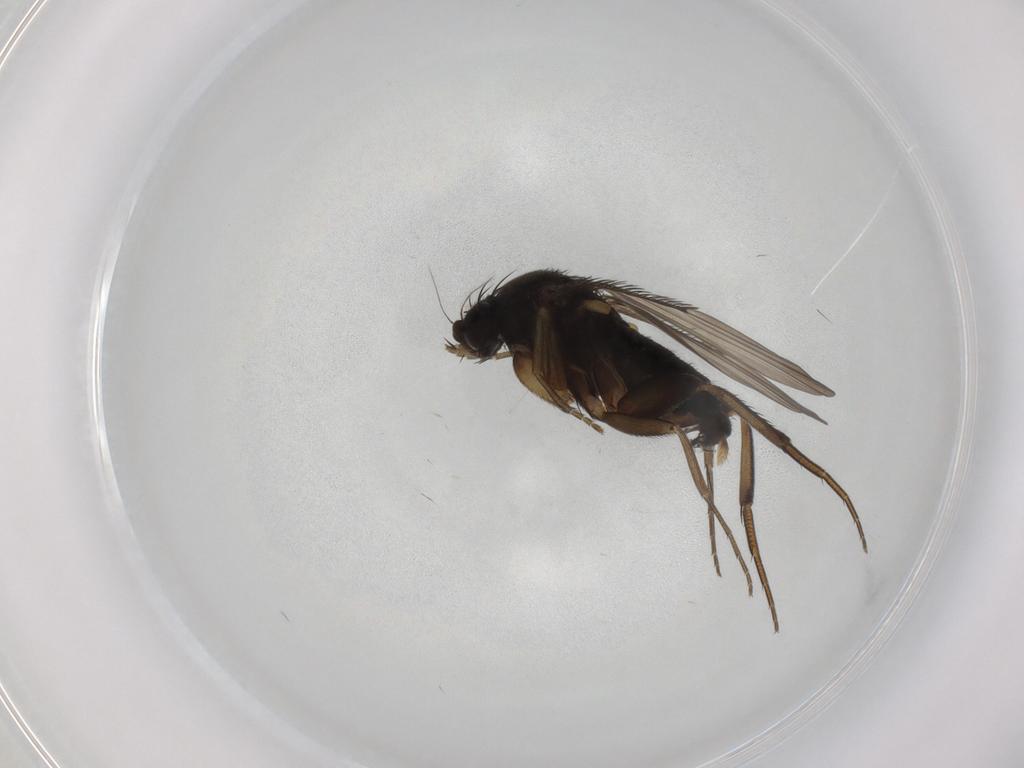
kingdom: Animalia
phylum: Arthropoda
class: Insecta
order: Diptera
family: Phoridae
